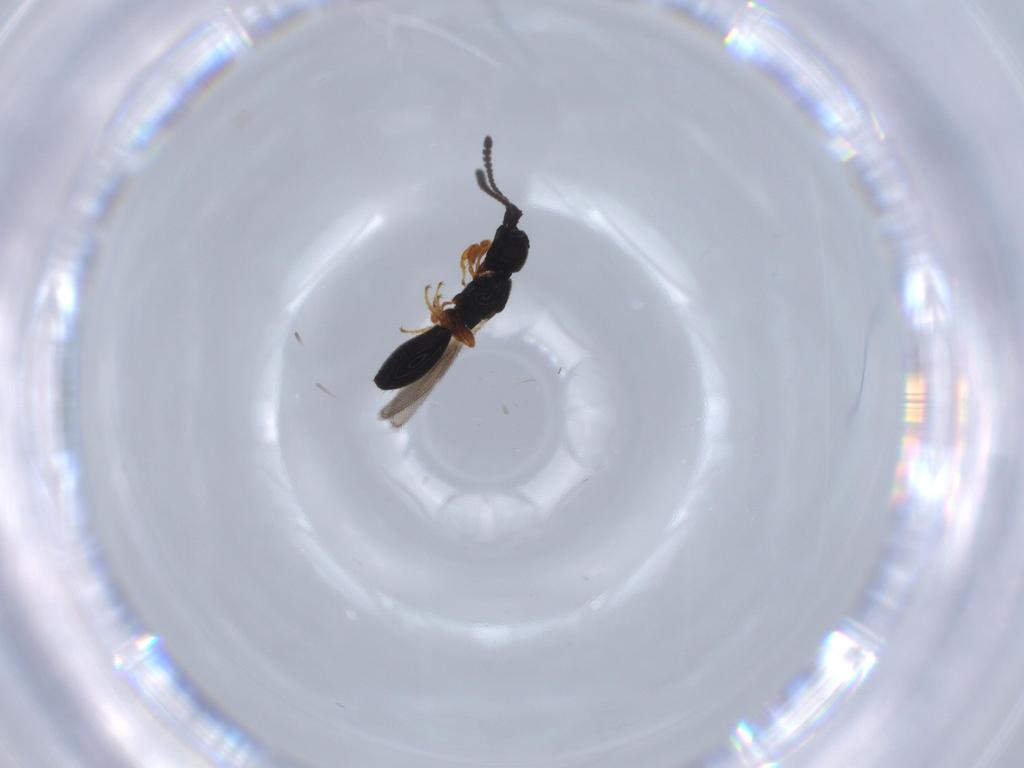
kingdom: Animalia
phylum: Arthropoda
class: Insecta
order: Hymenoptera
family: Diapriidae
